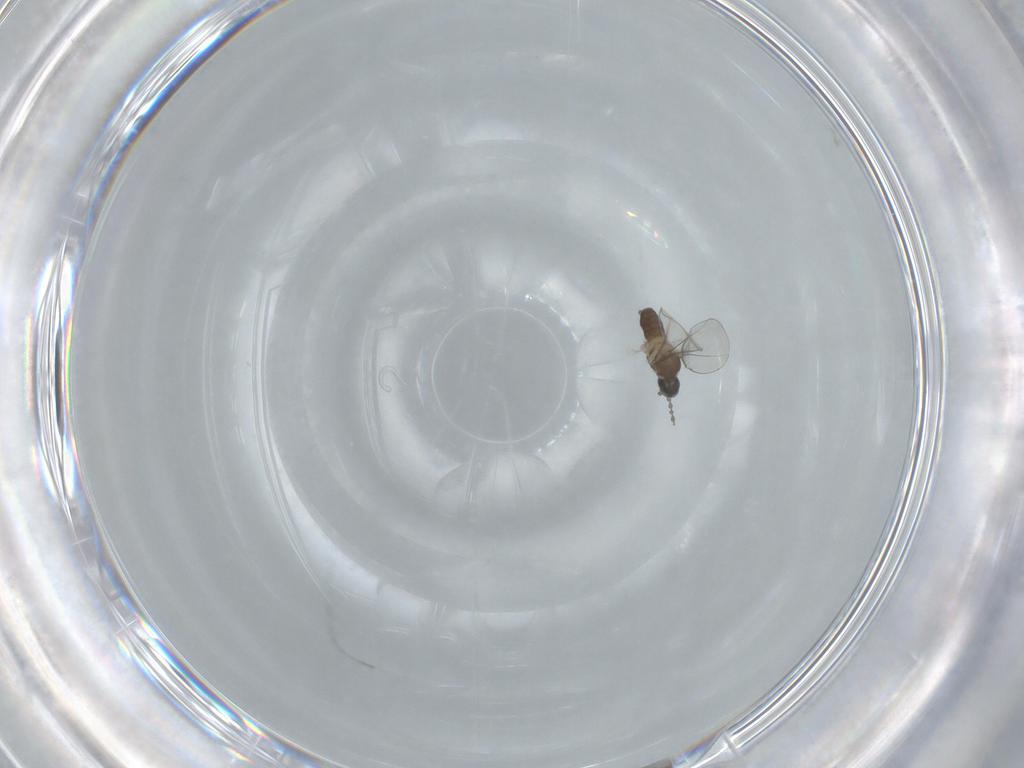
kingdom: Animalia
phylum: Arthropoda
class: Insecta
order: Diptera
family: Cecidomyiidae
